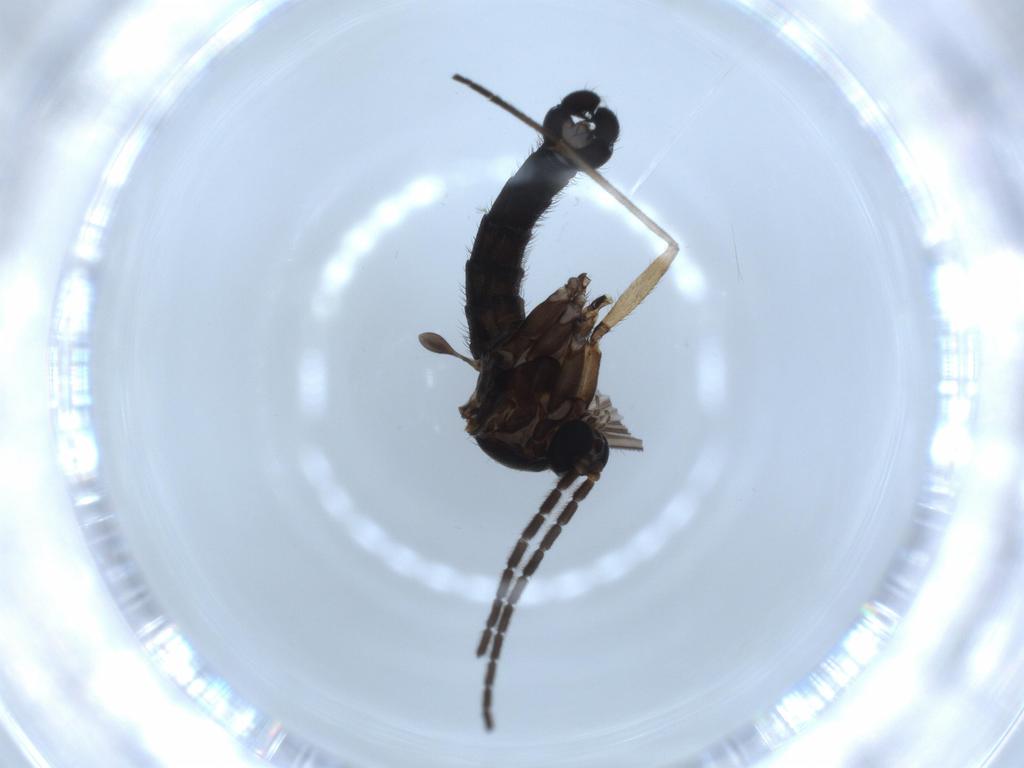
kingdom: Animalia
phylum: Arthropoda
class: Insecta
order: Diptera
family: Sciaridae
